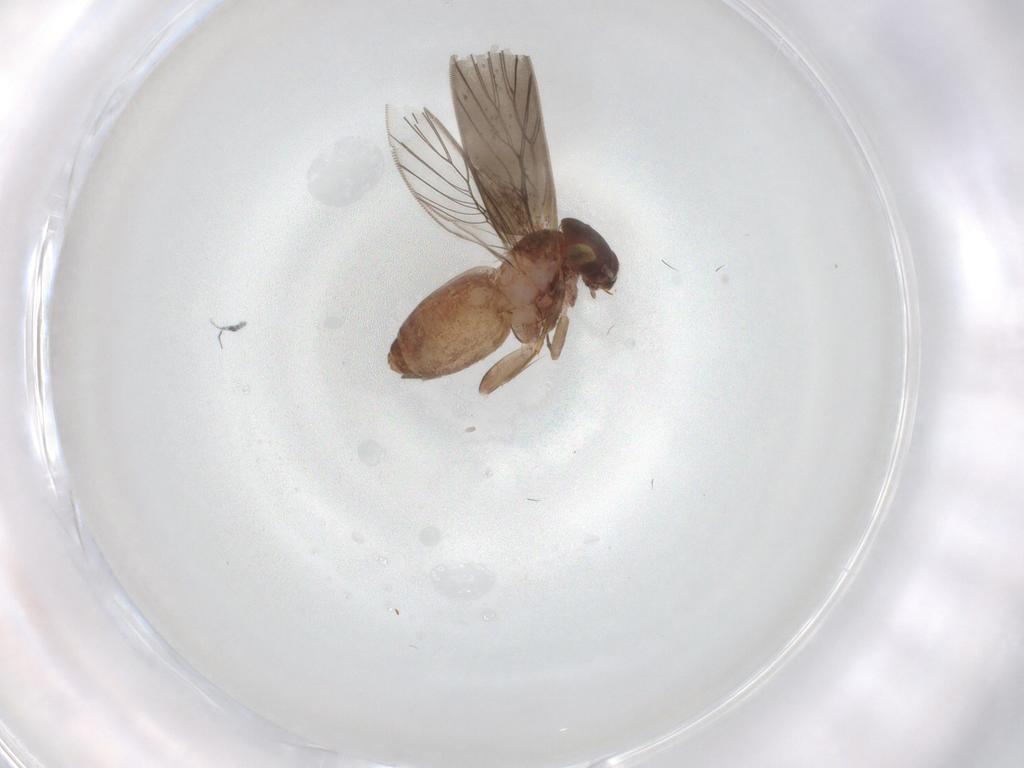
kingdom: Animalia
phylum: Arthropoda
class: Insecta
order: Psocodea
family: Lepidopsocidae
